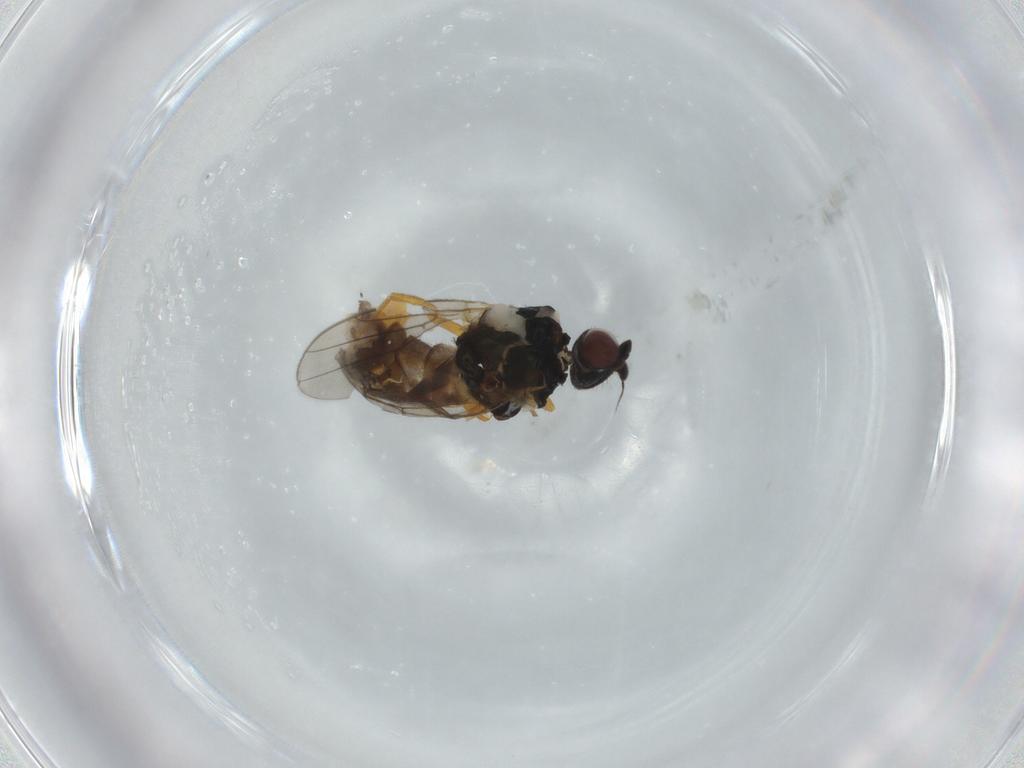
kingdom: Animalia
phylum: Arthropoda
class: Insecta
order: Diptera
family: Chloropidae
